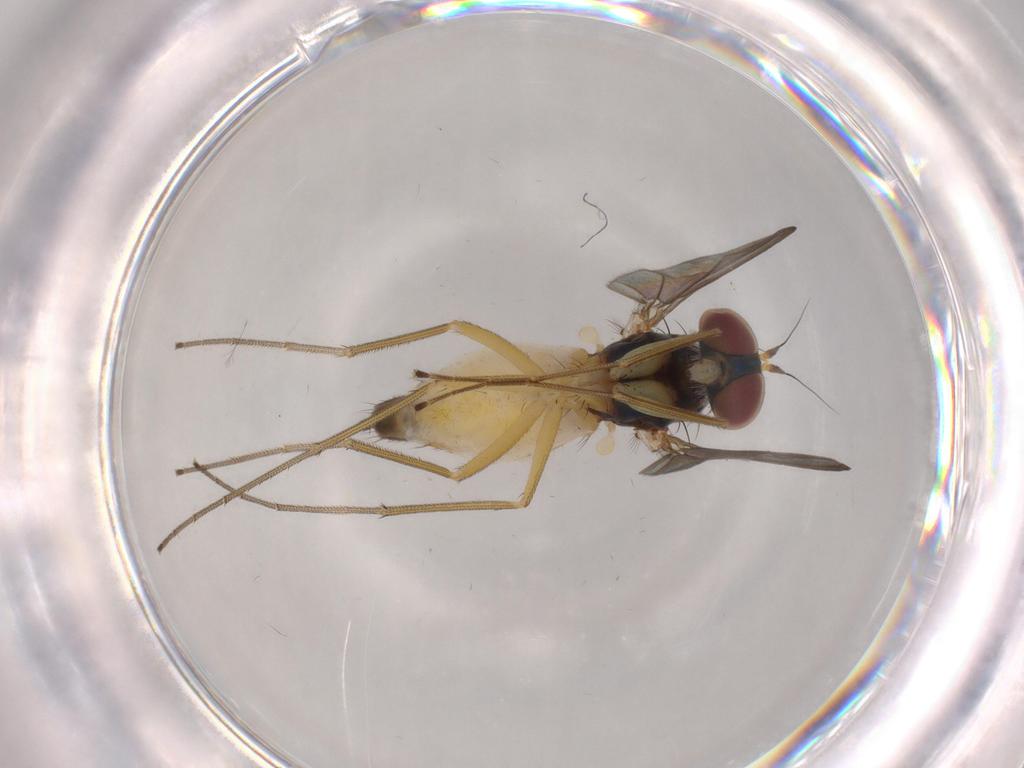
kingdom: Animalia
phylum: Arthropoda
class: Insecta
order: Diptera
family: Dolichopodidae
